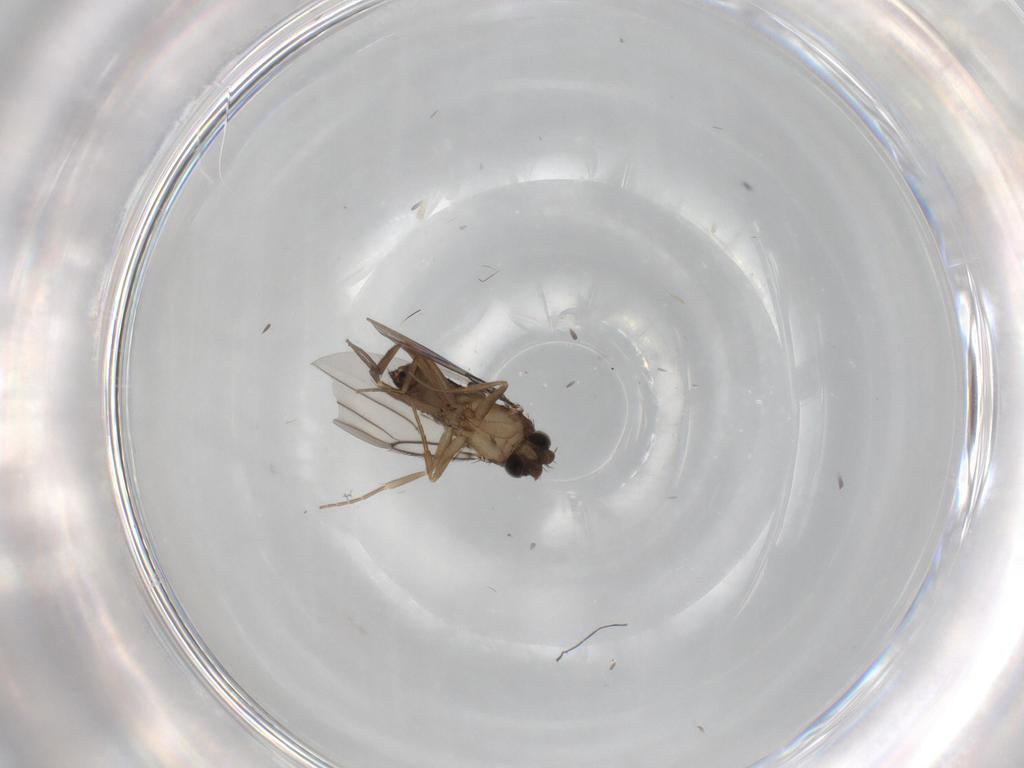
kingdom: Animalia
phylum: Arthropoda
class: Insecta
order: Diptera
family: Phoridae
